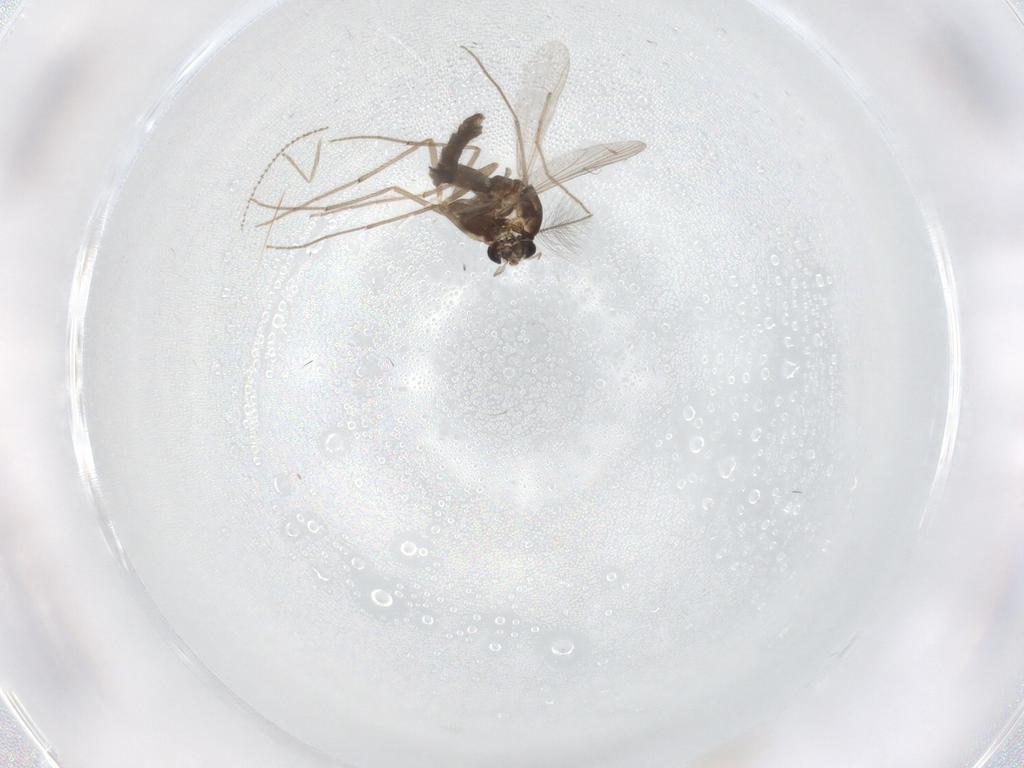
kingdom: Animalia
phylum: Arthropoda
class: Insecta
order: Diptera
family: Chironomidae
